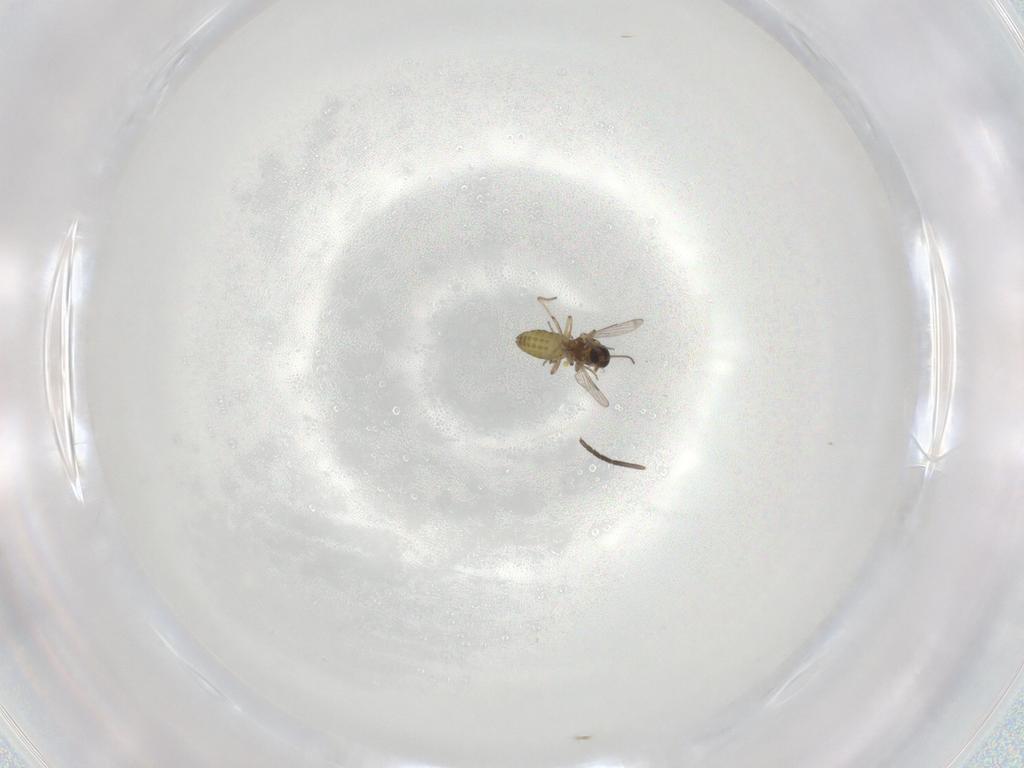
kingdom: Animalia
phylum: Arthropoda
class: Insecta
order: Diptera
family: Ceratopogonidae
